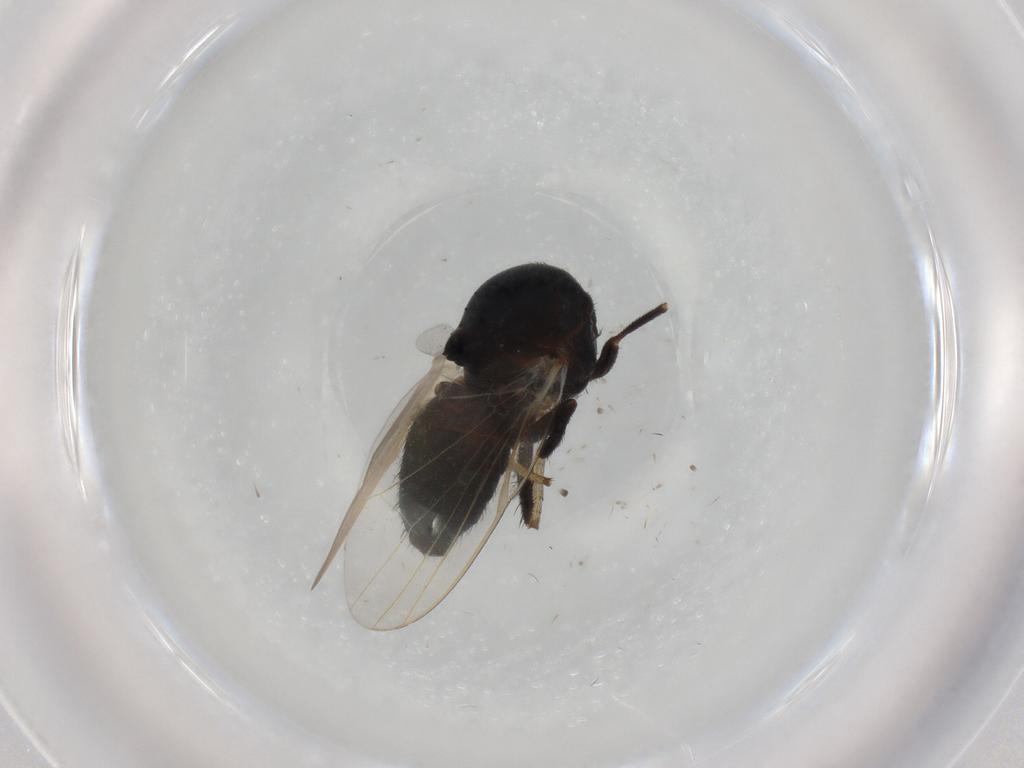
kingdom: Animalia
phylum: Arthropoda
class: Insecta
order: Diptera
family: Lonchaeidae
